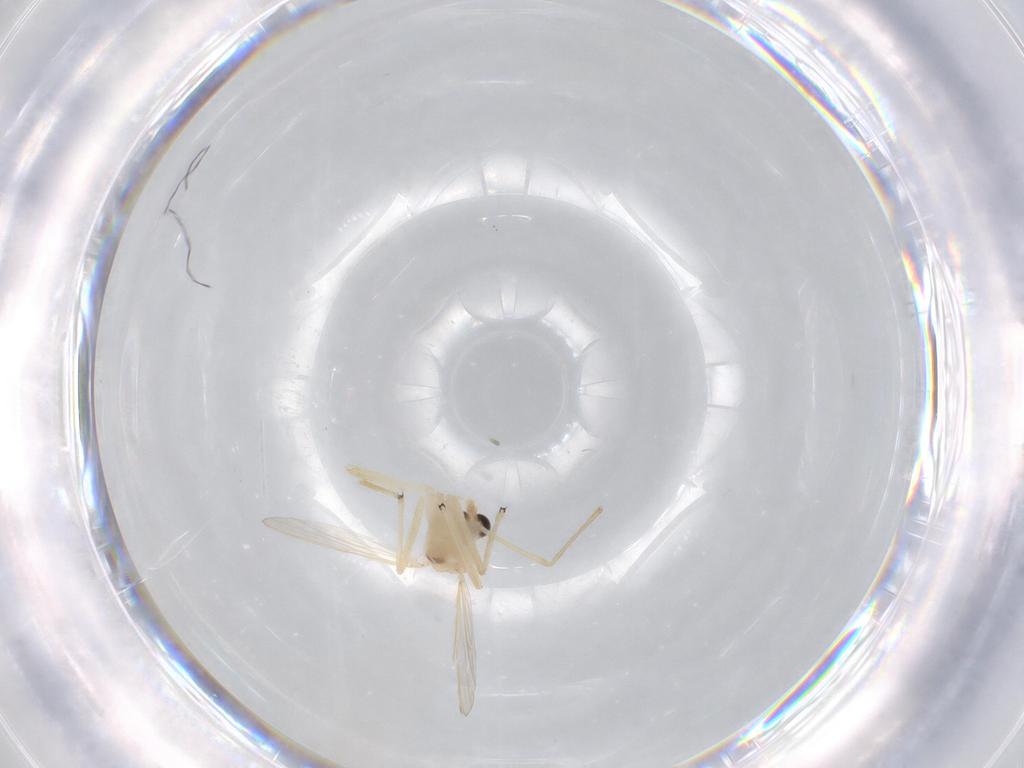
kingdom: Animalia
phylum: Arthropoda
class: Insecta
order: Diptera
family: Chironomidae
